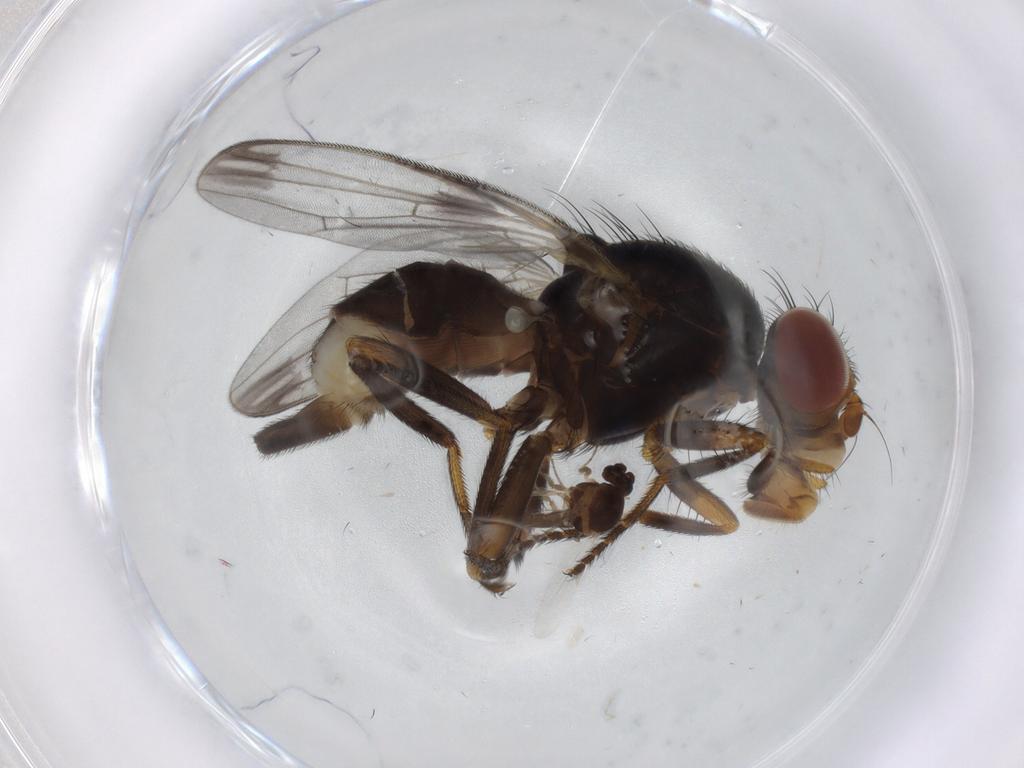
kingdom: Animalia
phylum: Arthropoda
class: Insecta
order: Diptera
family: Ulidiidae
